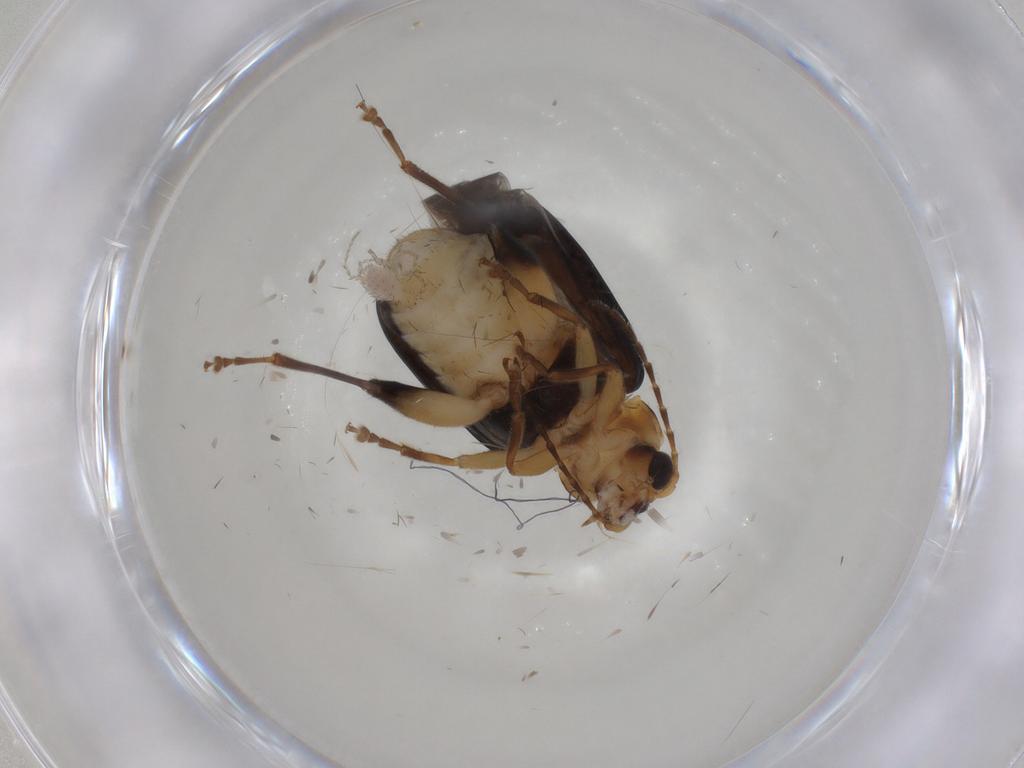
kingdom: Animalia
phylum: Arthropoda
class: Insecta
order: Coleoptera
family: Chrysomelidae
